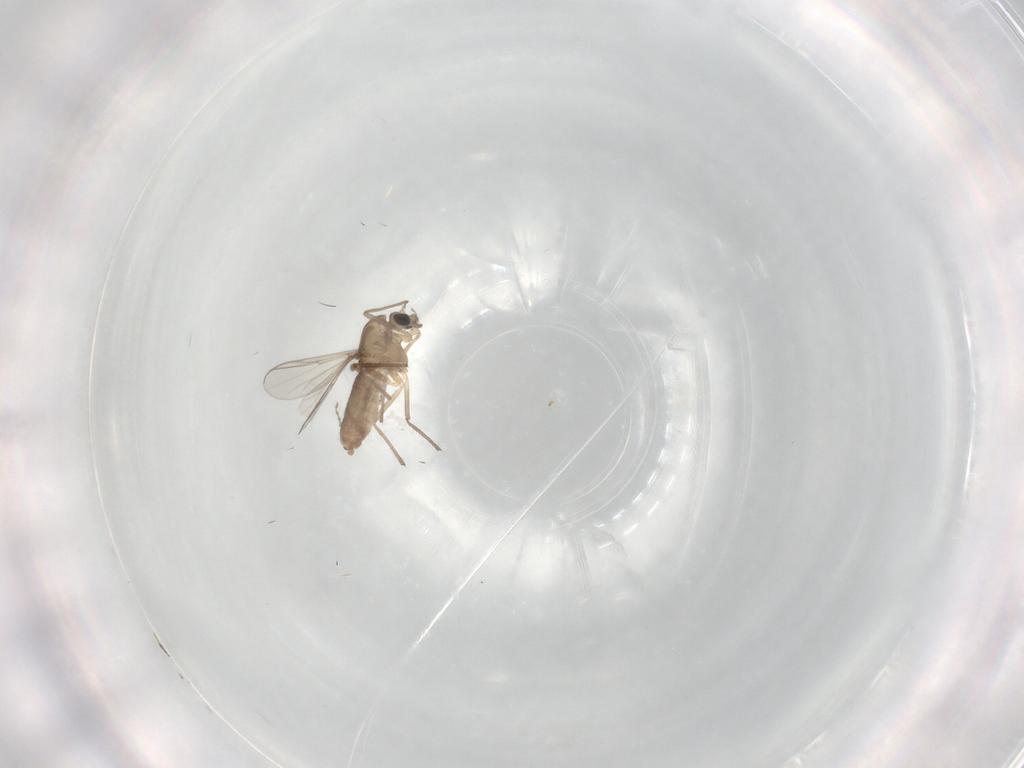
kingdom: Animalia
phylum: Arthropoda
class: Insecta
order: Diptera
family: Chironomidae
